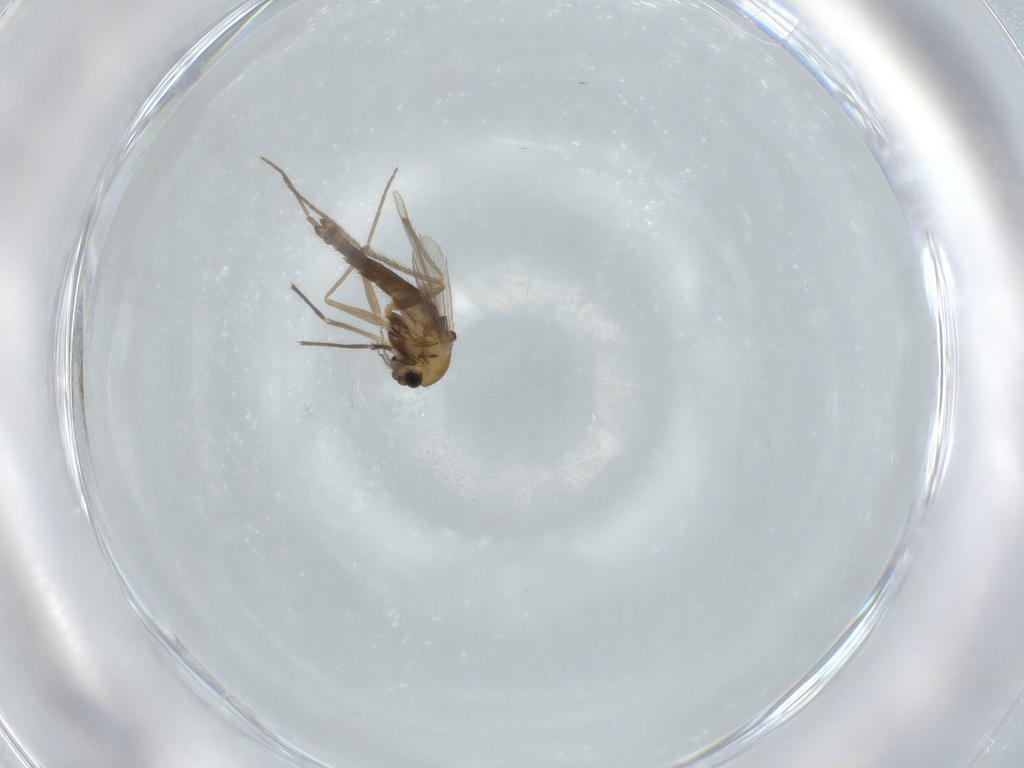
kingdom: Animalia
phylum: Arthropoda
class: Insecta
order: Diptera
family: Chironomidae
